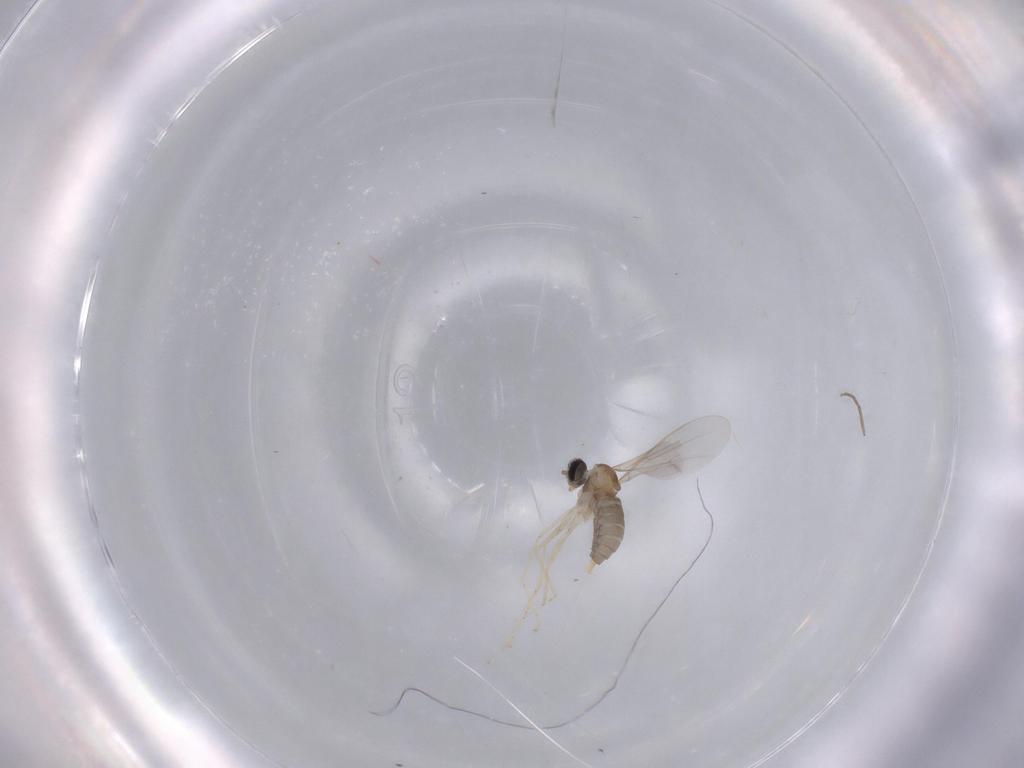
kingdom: Animalia
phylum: Arthropoda
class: Insecta
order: Diptera
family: Cecidomyiidae
